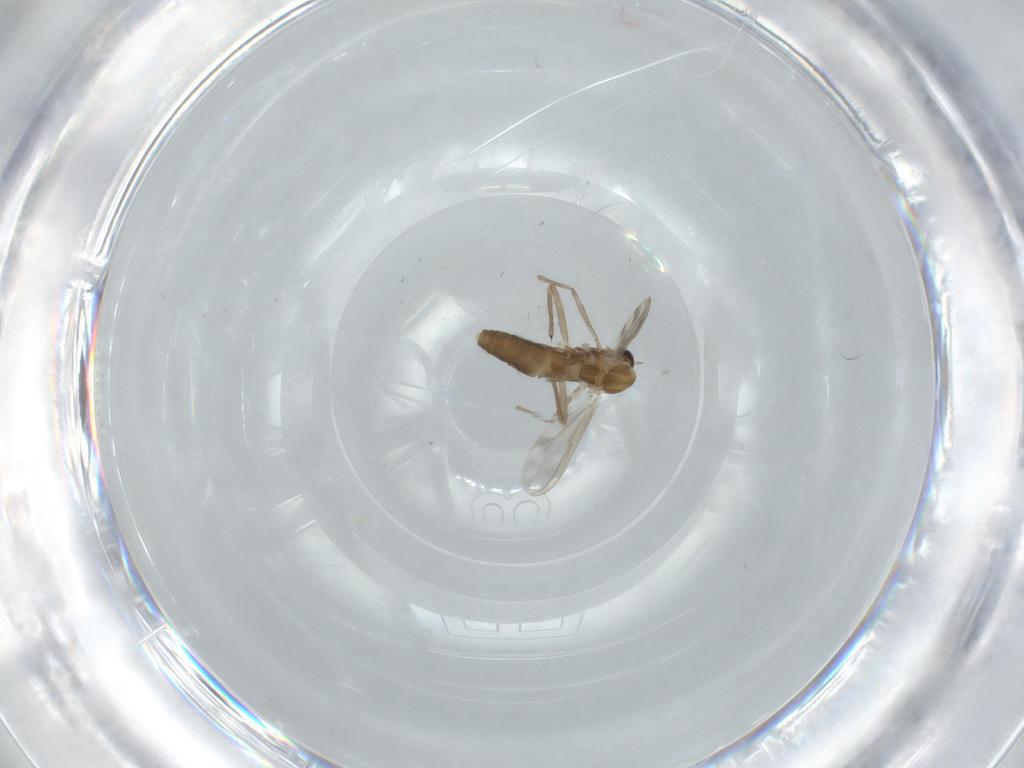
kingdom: Animalia
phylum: Arthropoda
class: Insecta
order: Diptera
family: Chironomidae
